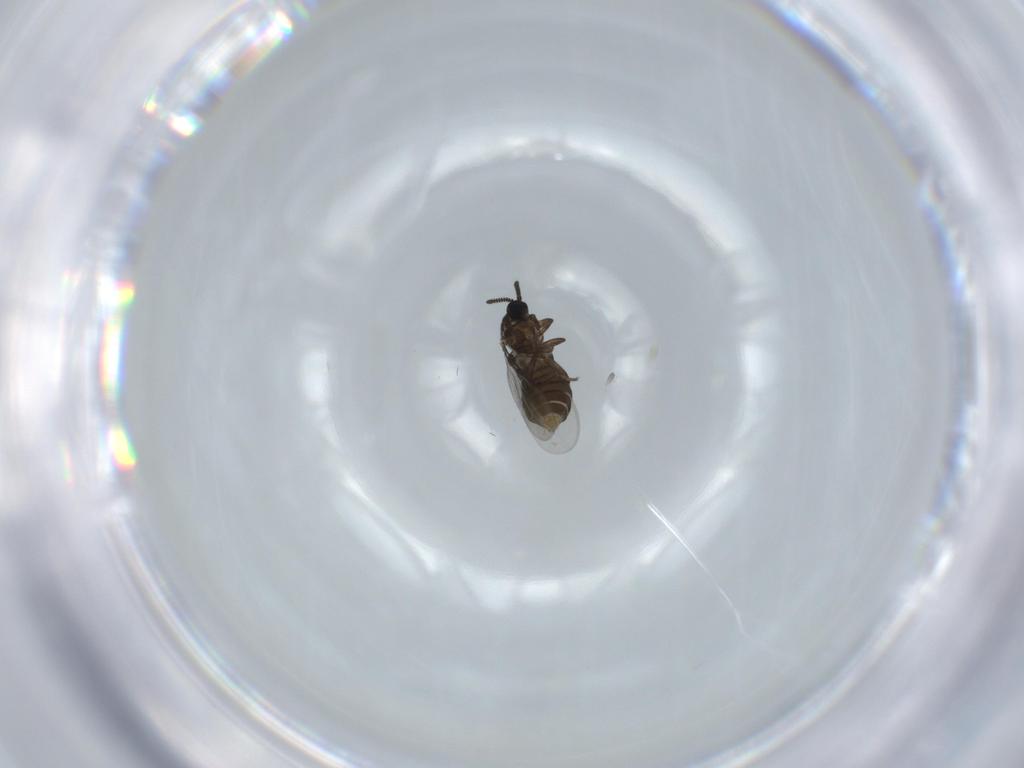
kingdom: Animalia
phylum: Arthropoda
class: Insecta
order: Diptera
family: Scatopsidae
